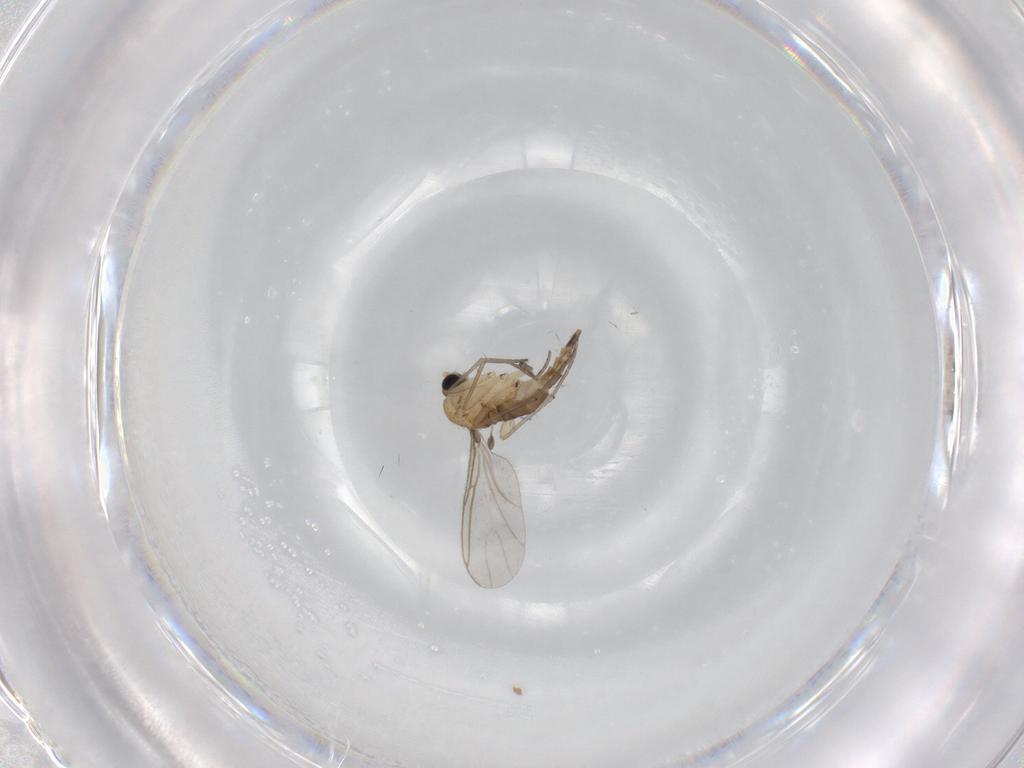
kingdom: Animalia
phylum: Arthropoda
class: Insecta
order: Diptera
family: Sciaridae
